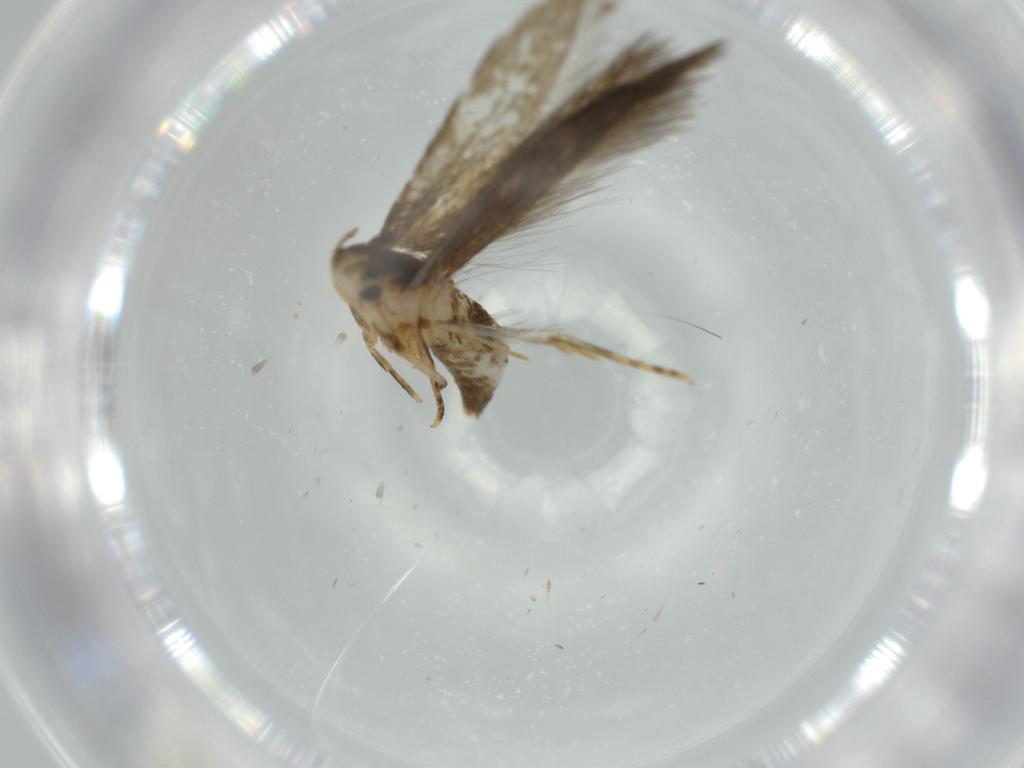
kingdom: Animalia
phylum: Arthropoda
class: Insecta
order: Lepidoptera
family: Tineidae
